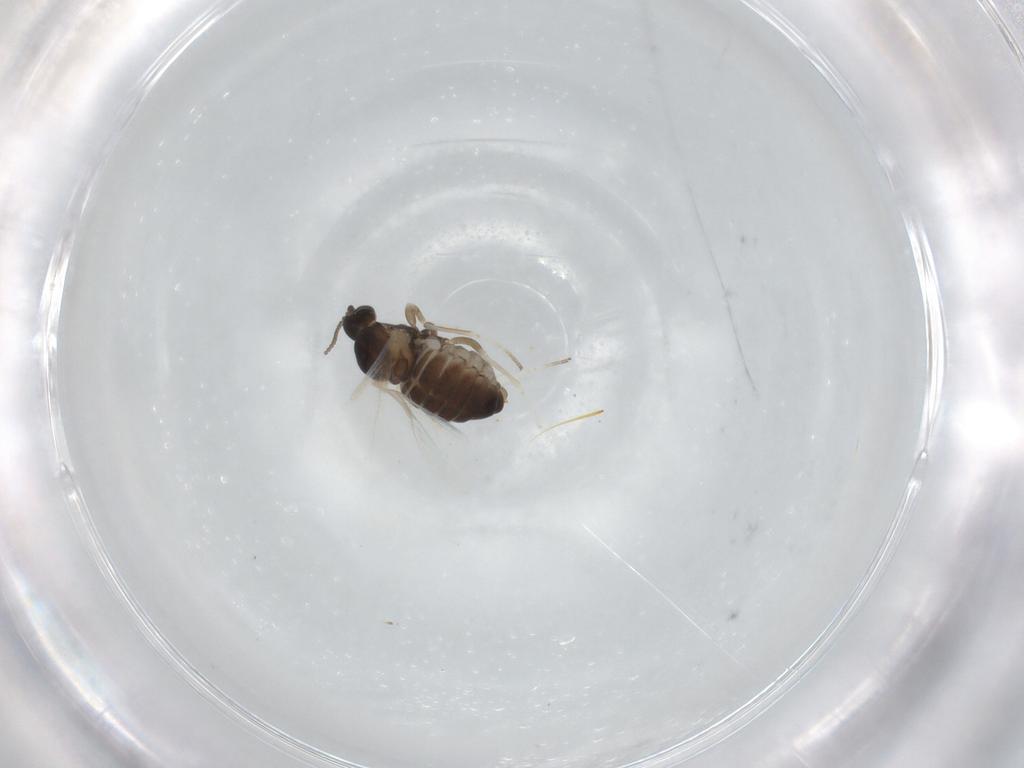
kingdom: Animalia
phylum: Arthropoda
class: Insecta
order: Diptera
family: Cecidomyiidae
